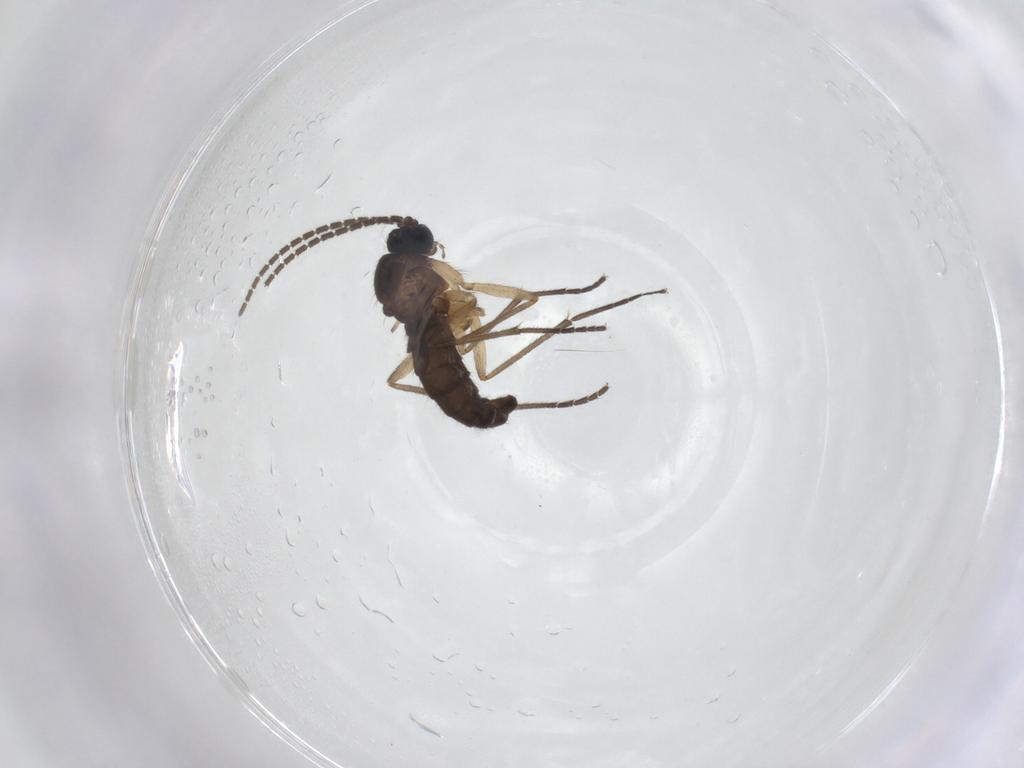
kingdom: Animalia
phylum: Arthropoda
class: Insecta
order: Diptera
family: Sciaridae
